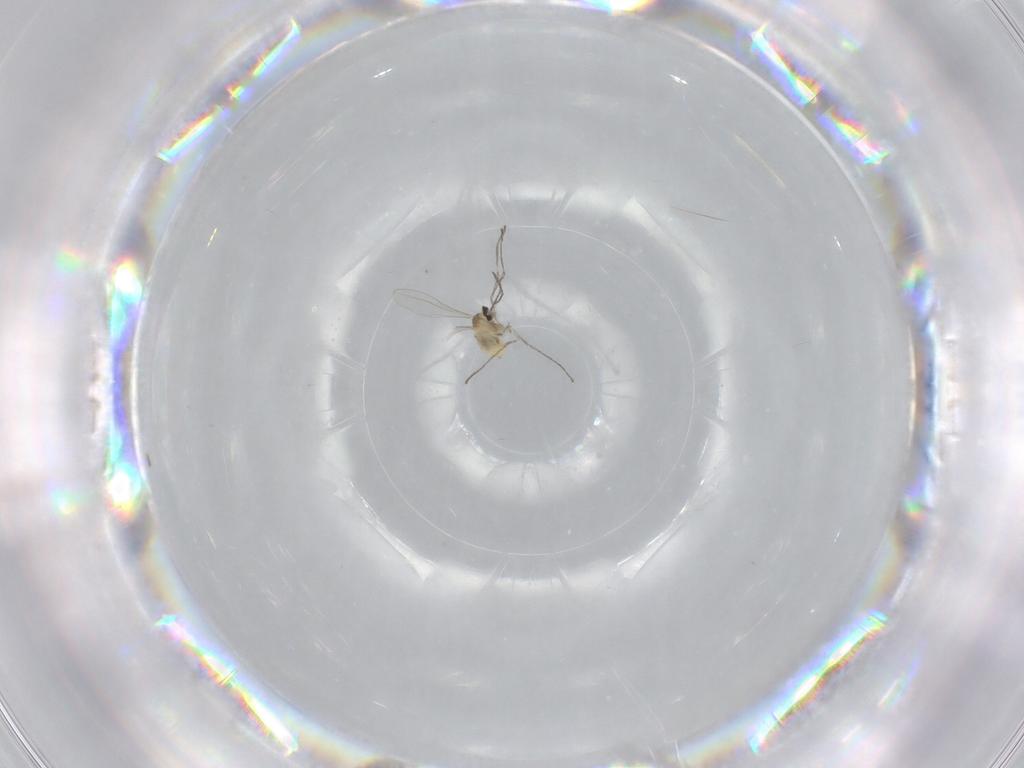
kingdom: Animalia
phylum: Arthropoda
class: Insecta
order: Diptera
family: Cecidomyiidae
